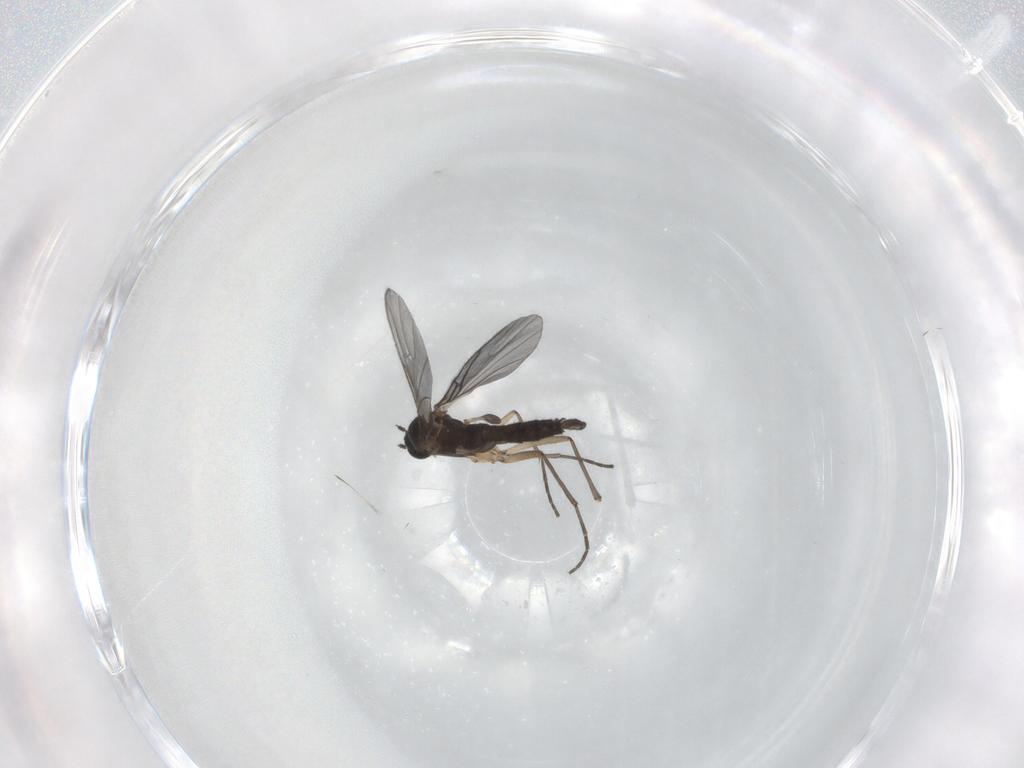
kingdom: Animalia
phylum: Arthropoda
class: Insecta
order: Diptera
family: Sciaridae
